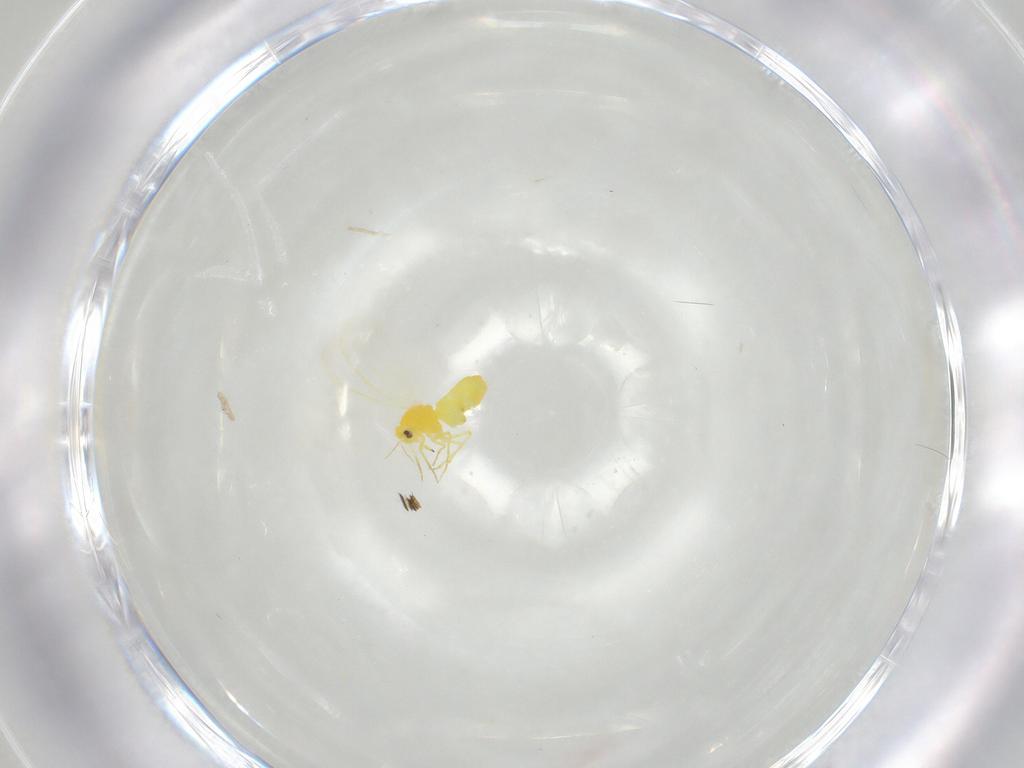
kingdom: Animalia
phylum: Arthropoda
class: Insecta
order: Hemiptera
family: Aleyrodidae
